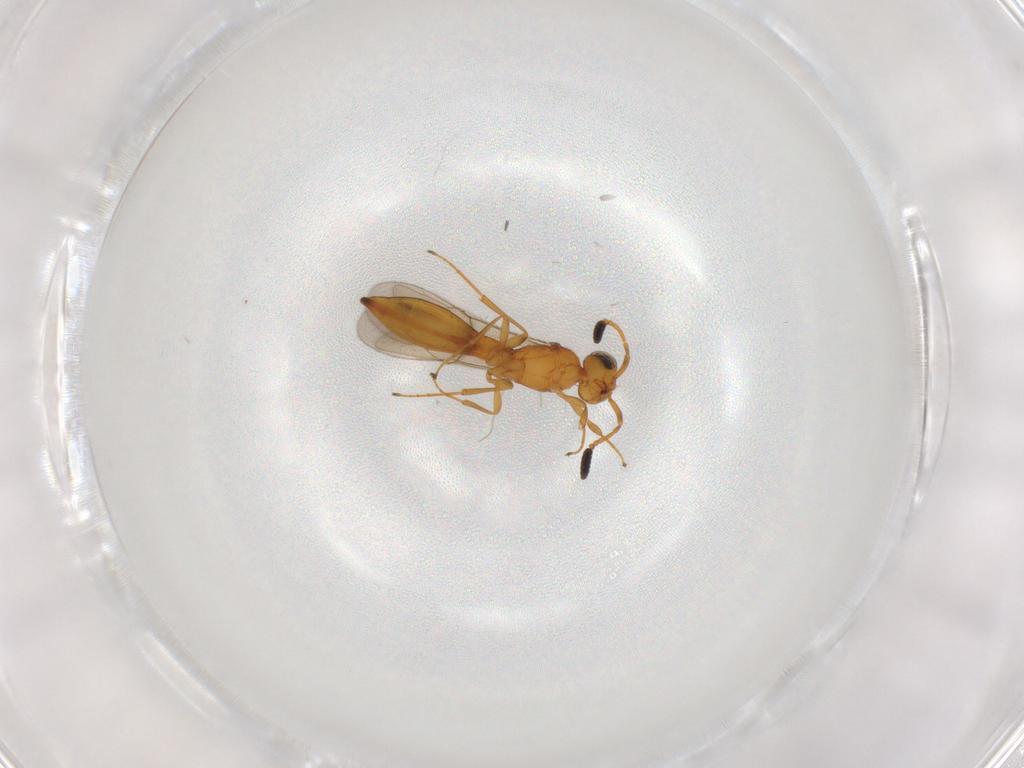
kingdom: Animalia
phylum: Arthropoda
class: Insecta
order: Hymenoptera
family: Scelionidae
